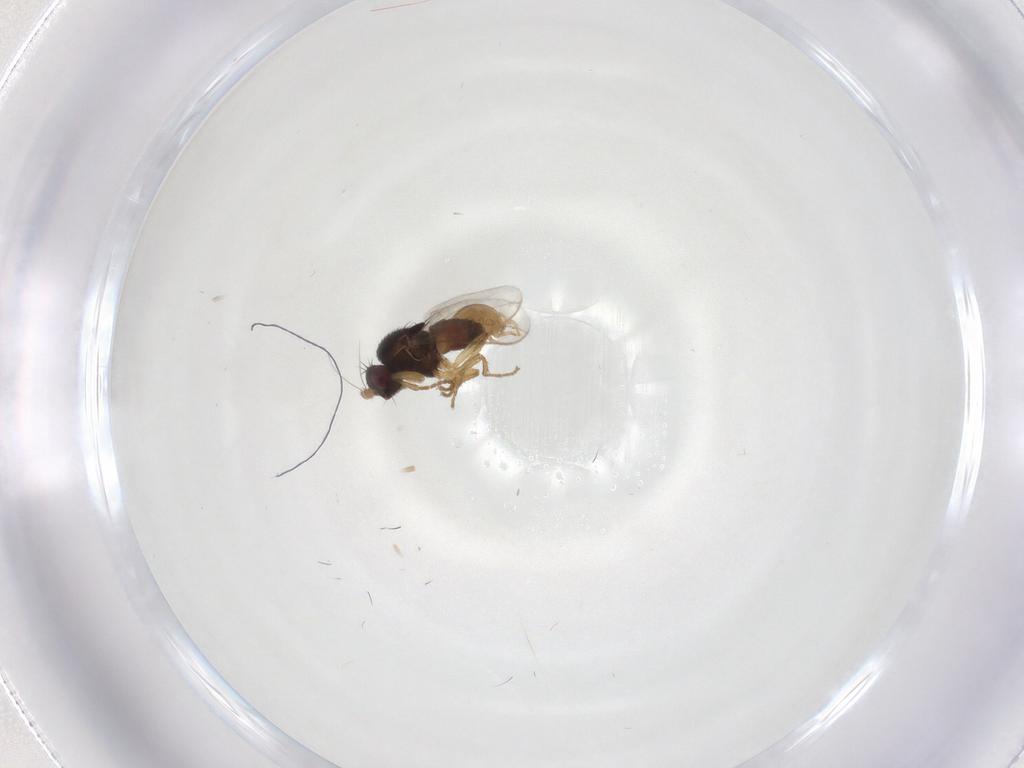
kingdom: Animalia
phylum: Arthropoda
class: Insecta
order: Diptera
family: Sphaeroceridae
